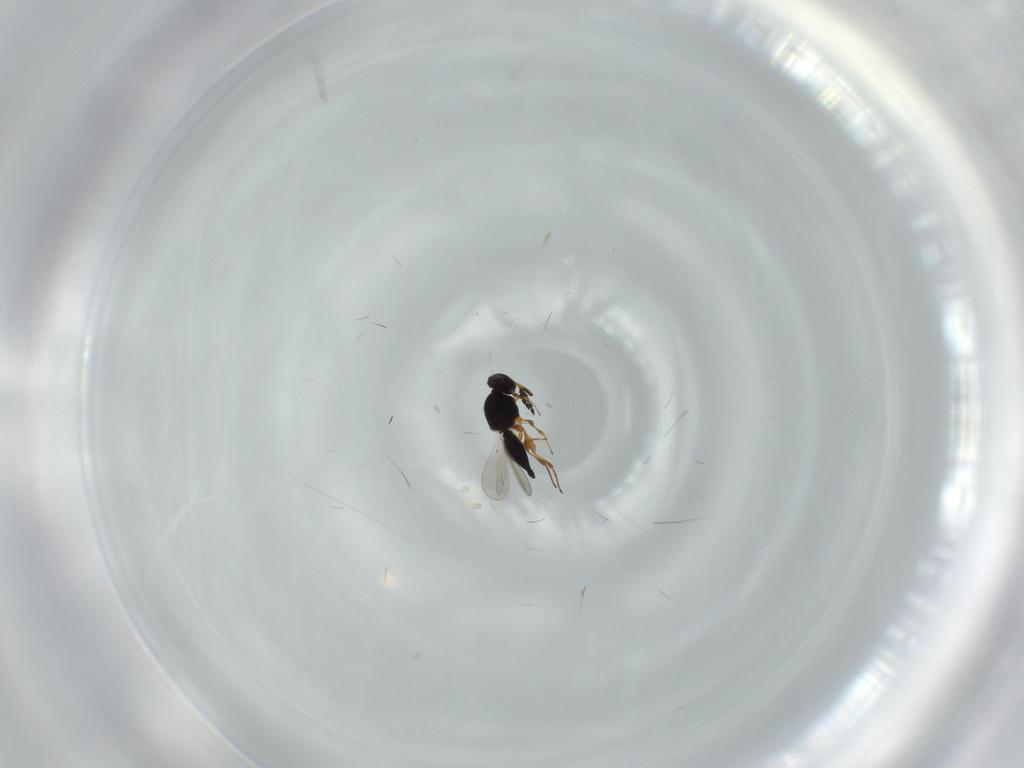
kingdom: Animalia
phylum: Arthropoda
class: Insecta
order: Hymenoptera
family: Platygastridae
